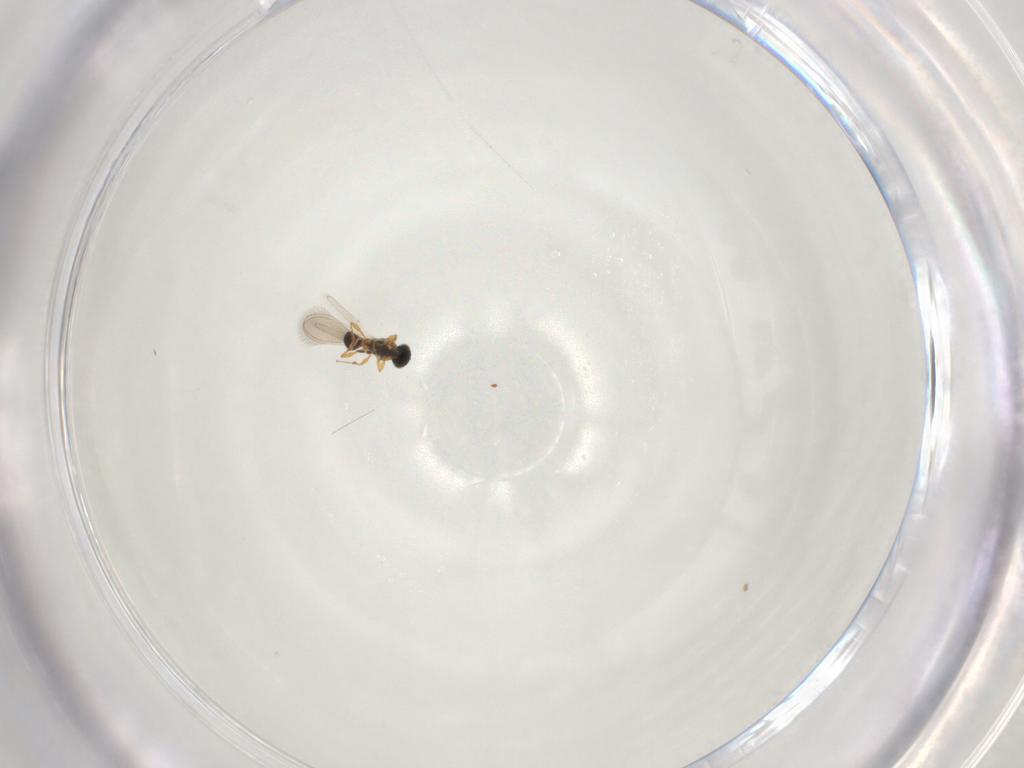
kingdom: Animalia
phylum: Arthropoda
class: Insecta
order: Hymenoptera
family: Platygastridae
